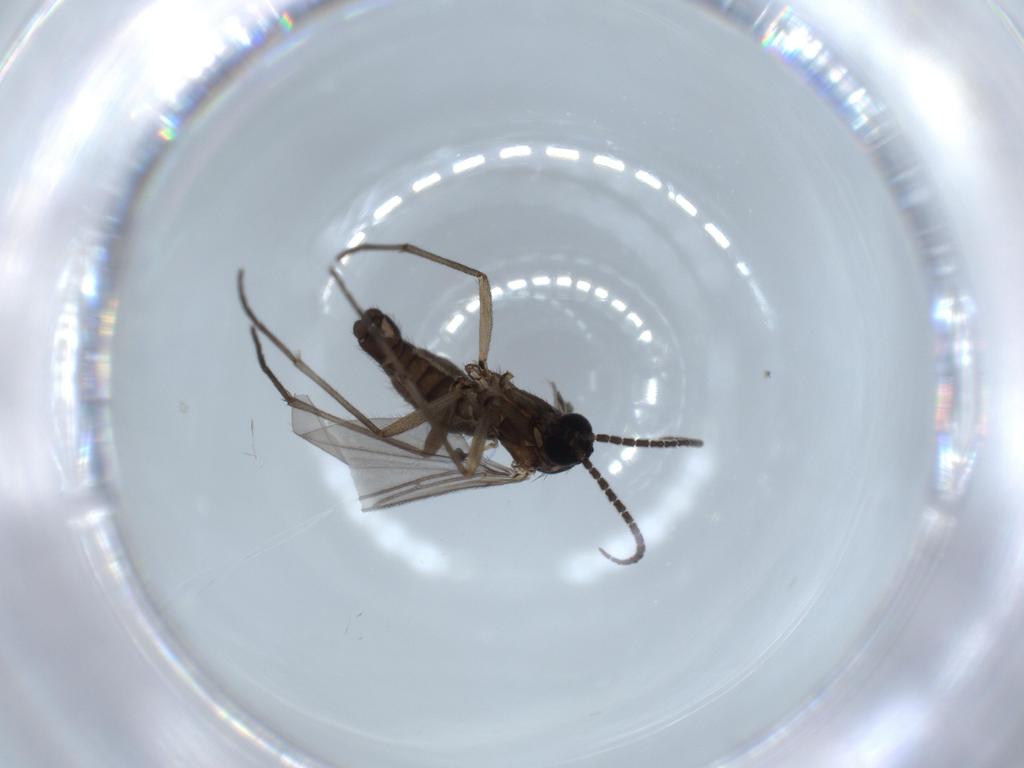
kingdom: Animalia
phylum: Arthropoda
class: Insecta
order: Diptera
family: Sciaridae
